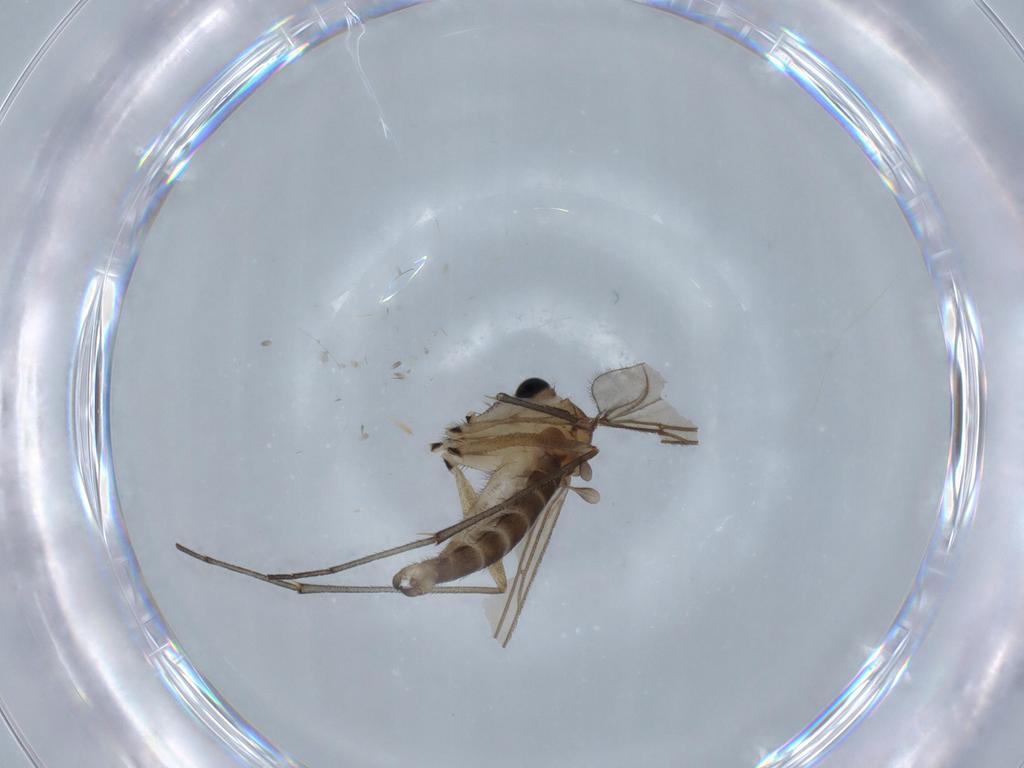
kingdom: Animalia
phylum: Arthropoda
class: Insecta
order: Diptera
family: Sciaridae
